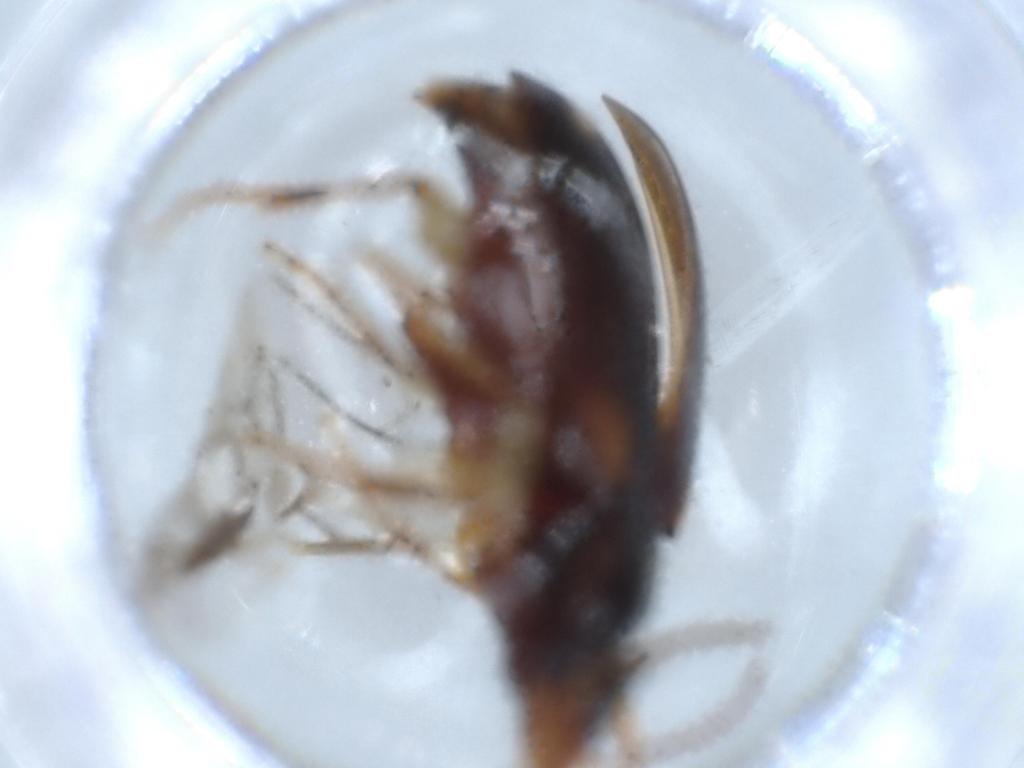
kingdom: Animalia
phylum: Arthropoda
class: Insecta
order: Coleoptera
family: Carabidae
